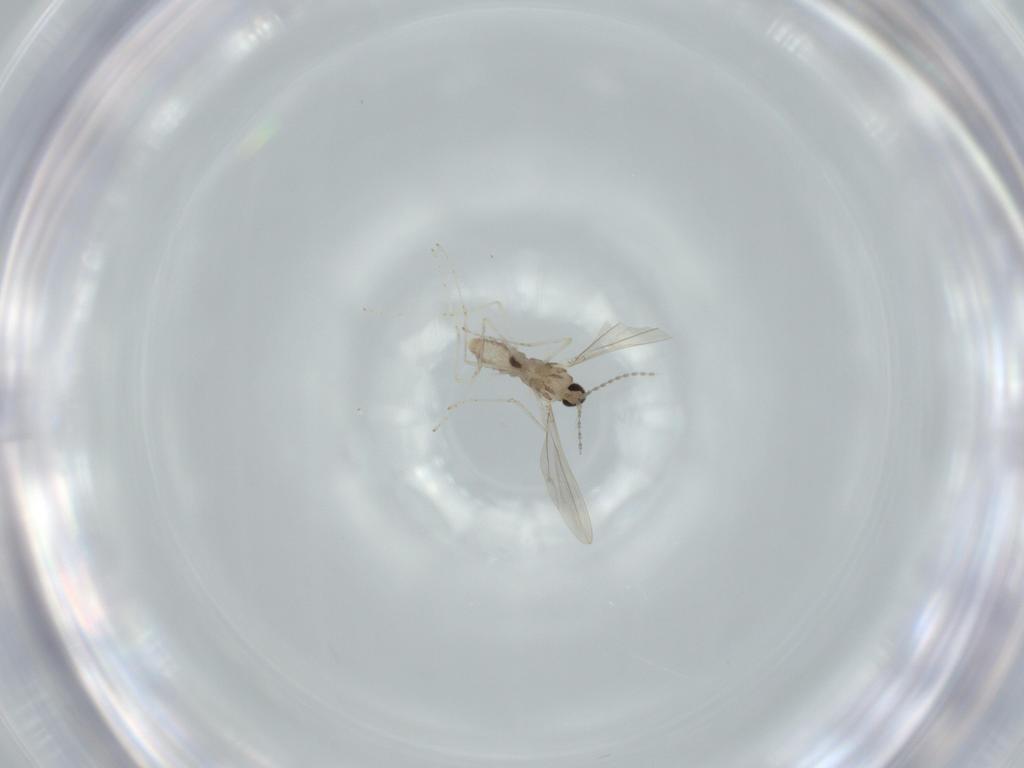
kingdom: Animalia
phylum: Arthropoda
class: Insecta
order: Diptera
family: Cecidomyiidae
